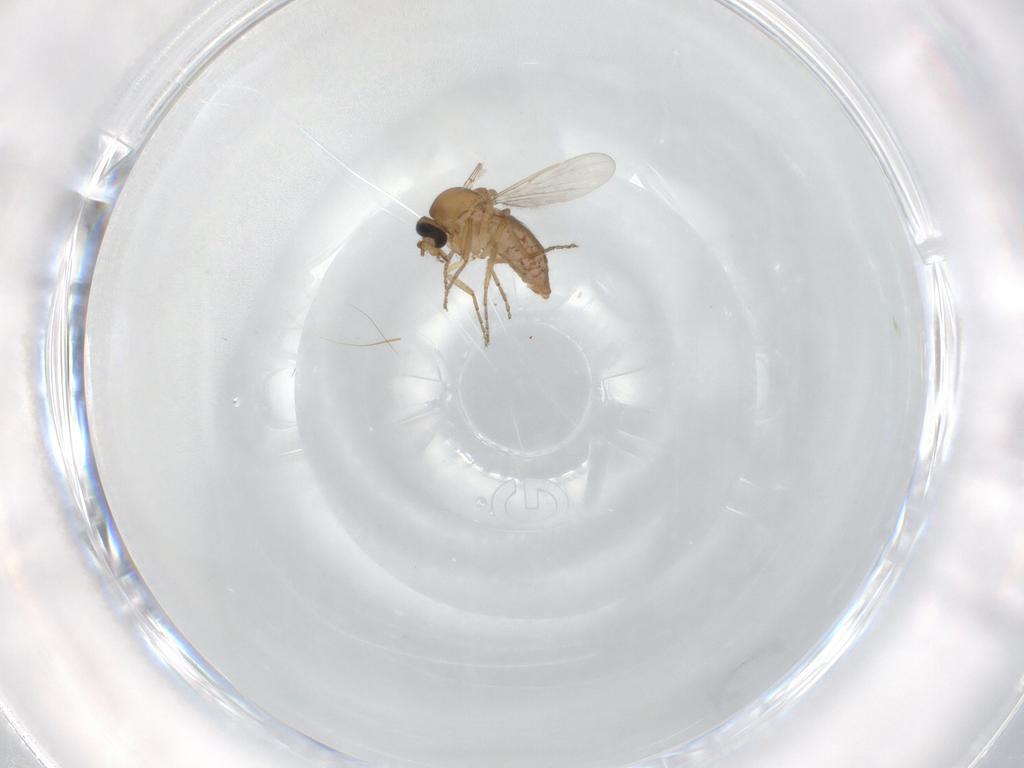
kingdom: Animalia
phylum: Arthropoda
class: Insecta
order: Diptera
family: Ceratopogonidae
